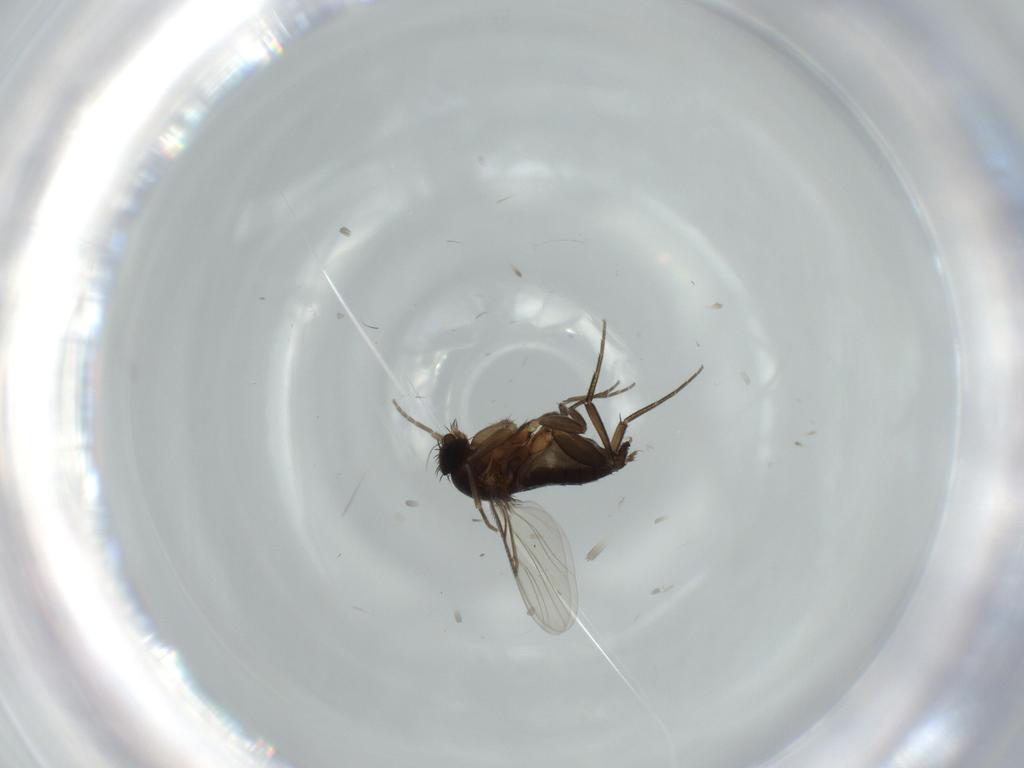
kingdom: Animalia
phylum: Arthropoda
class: Insecta
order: Diptera
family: Phoridae
